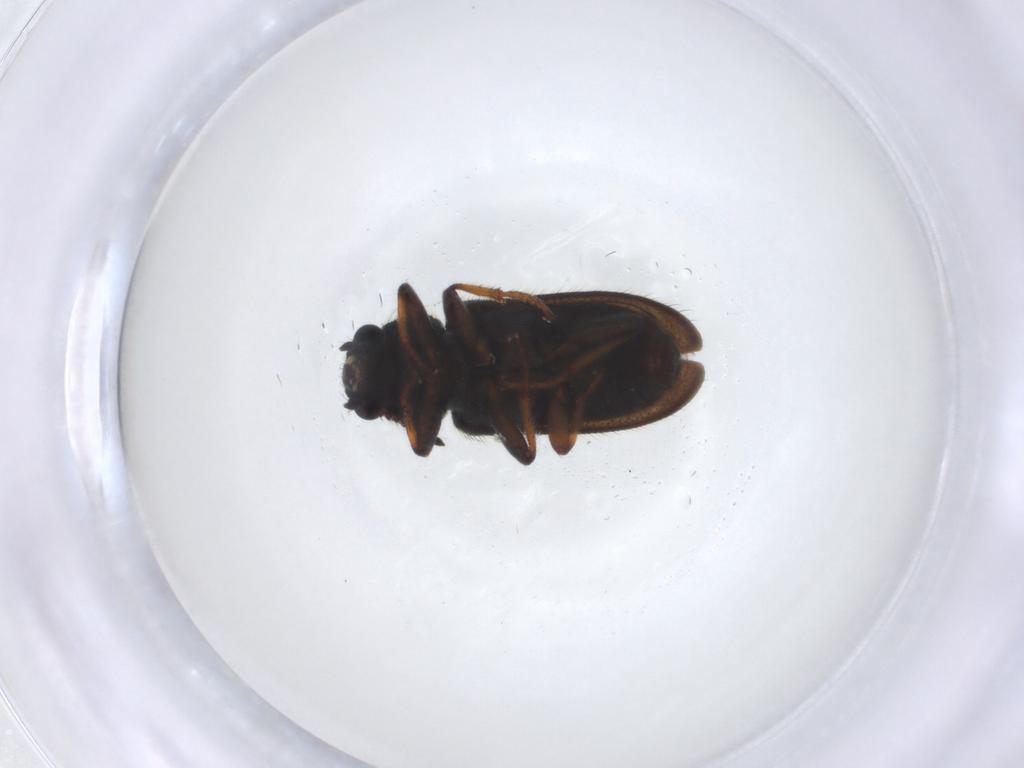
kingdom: Animalia
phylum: Arthropoda
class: Insecta
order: Coleoptera
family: Melyridae
